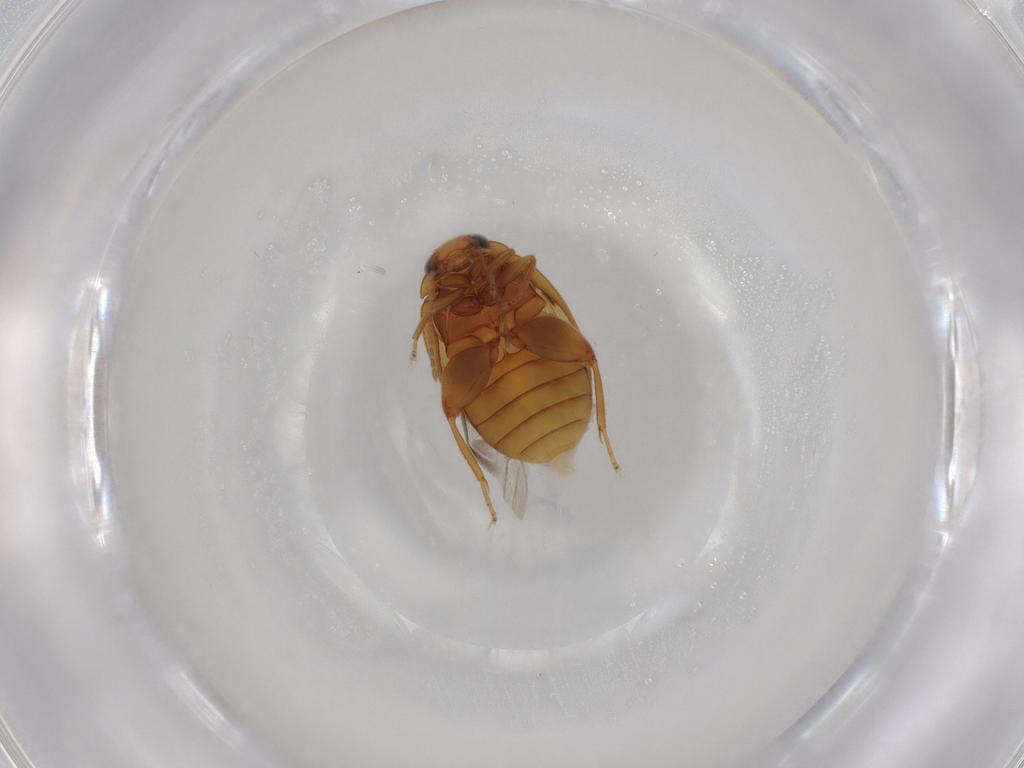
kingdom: Animalia
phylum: Arthropoda
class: Insecta
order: Coleoptera
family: Scirtidae
